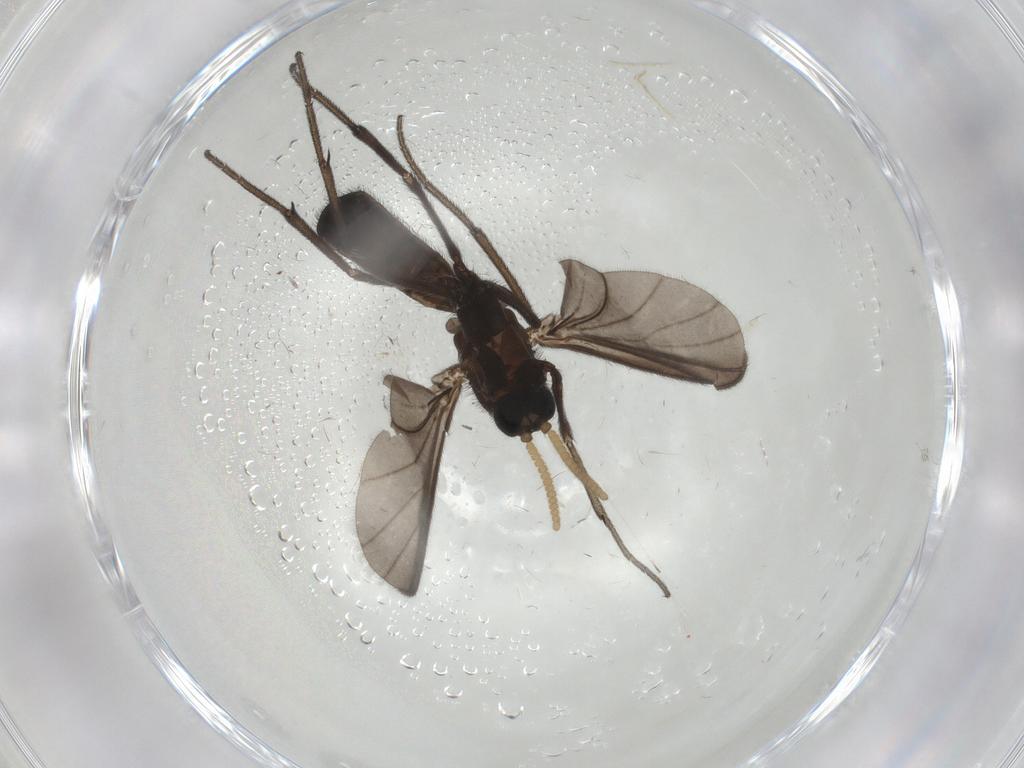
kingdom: Animalia
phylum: Arthropoda
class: Insecta
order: Diptera
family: Mycetophilidae
